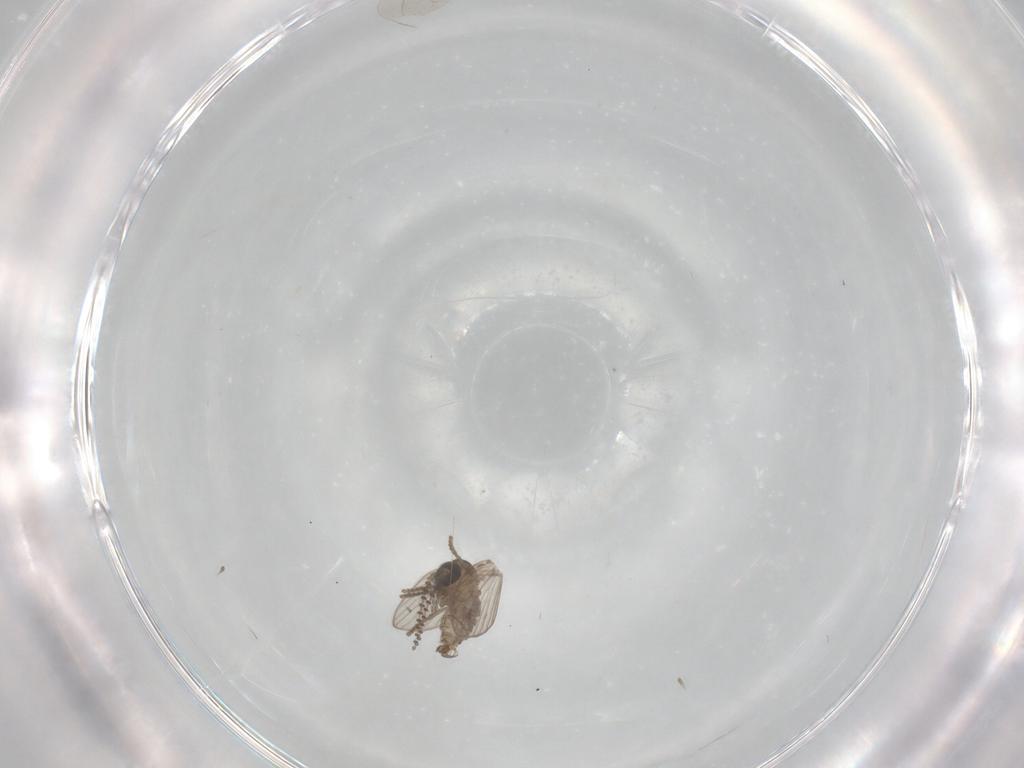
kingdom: Animalia
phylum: Arthropoda
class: Insecta
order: Diptera
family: Psychodidae
